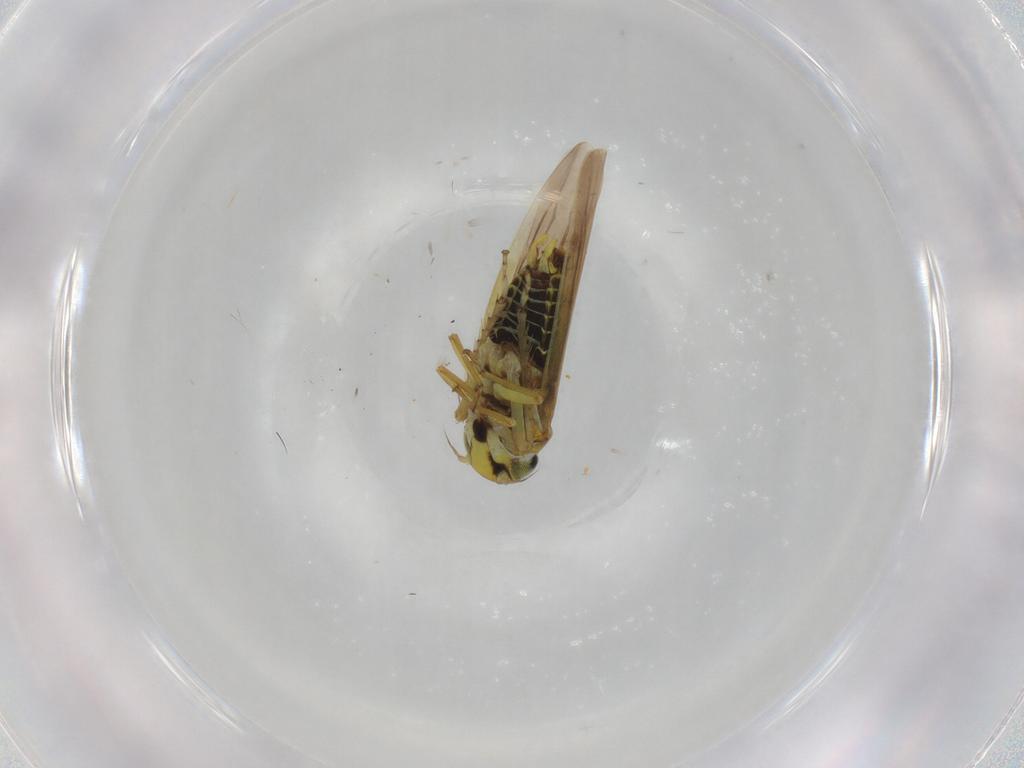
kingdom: Animalia
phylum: Arthropoda
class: Insecta
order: Hemiptera
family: Cicadellidae
